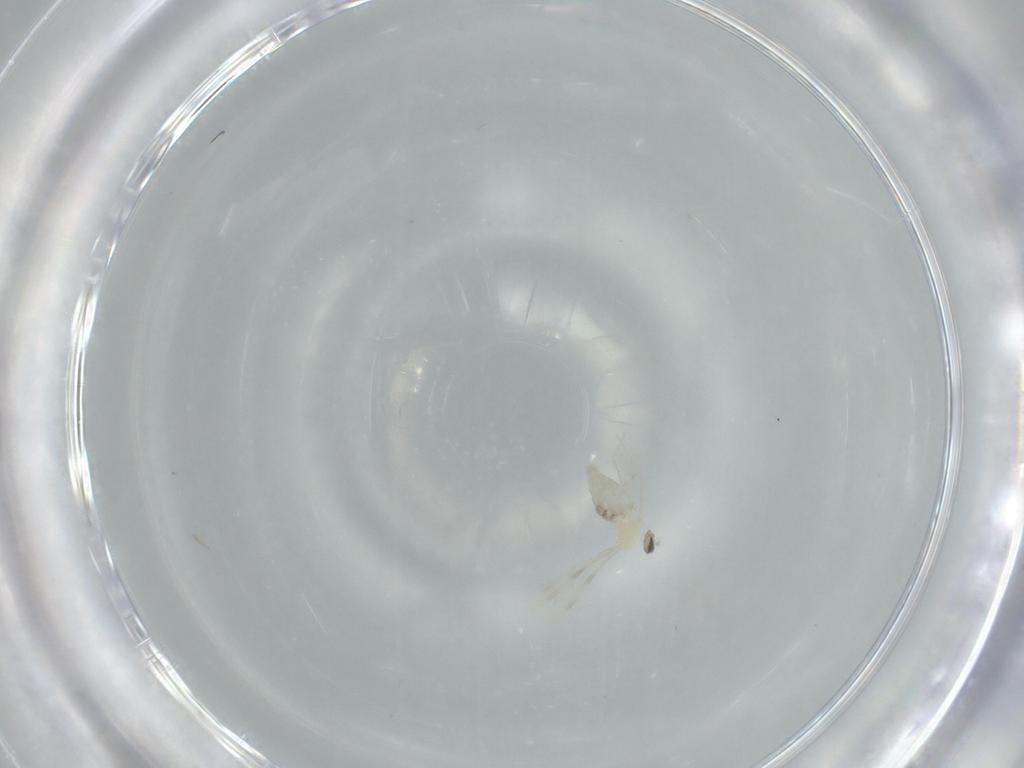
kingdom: Animalia
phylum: Arthropoda
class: Insecta
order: Diptera
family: Cecidomyiidae
